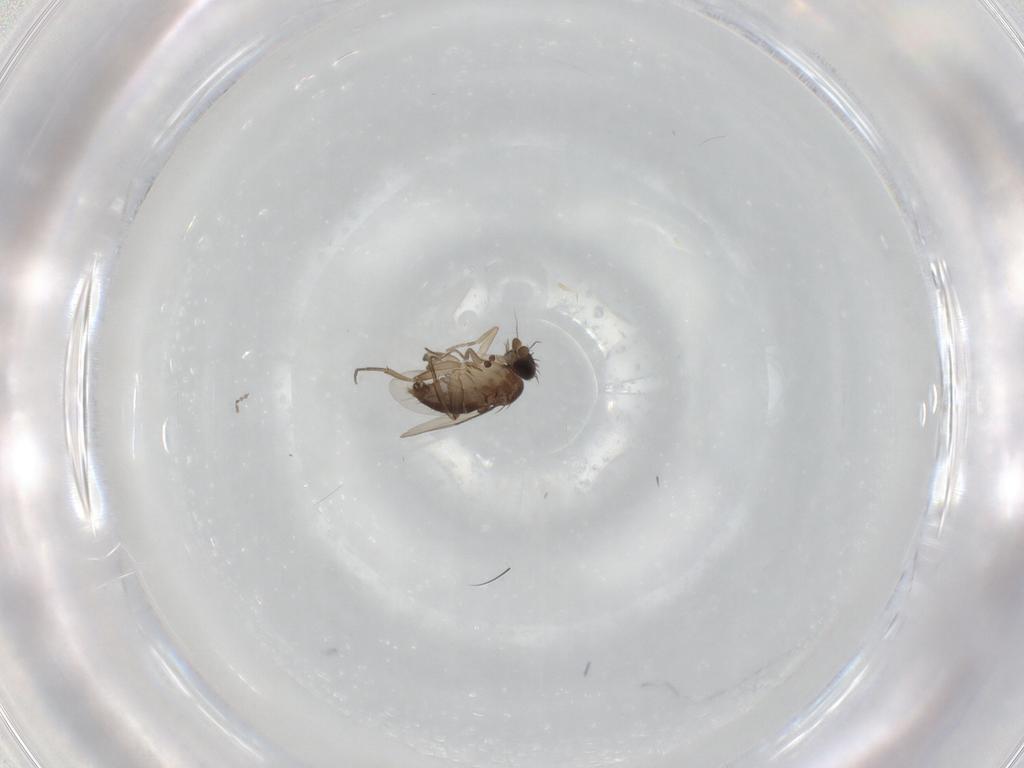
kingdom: Animalia
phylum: Arthropoda
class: Insecta
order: Diptera
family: Phoridae
